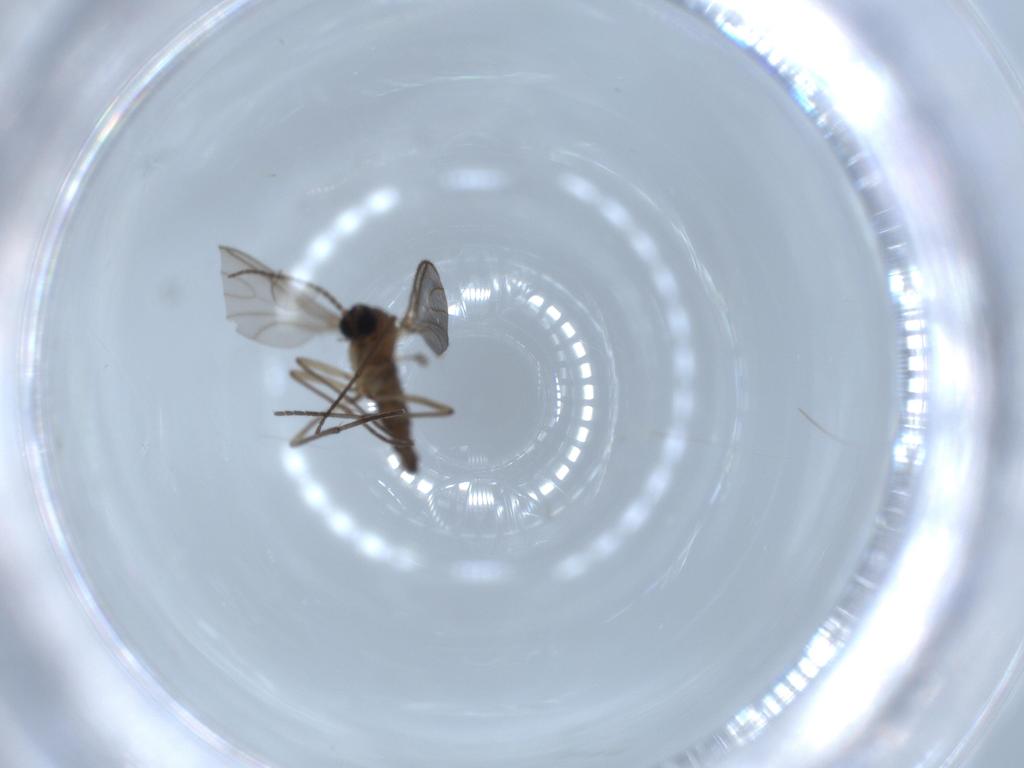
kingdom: Animalia
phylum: Arthropoda
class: Insecta
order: Diptera
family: Sciaridae
